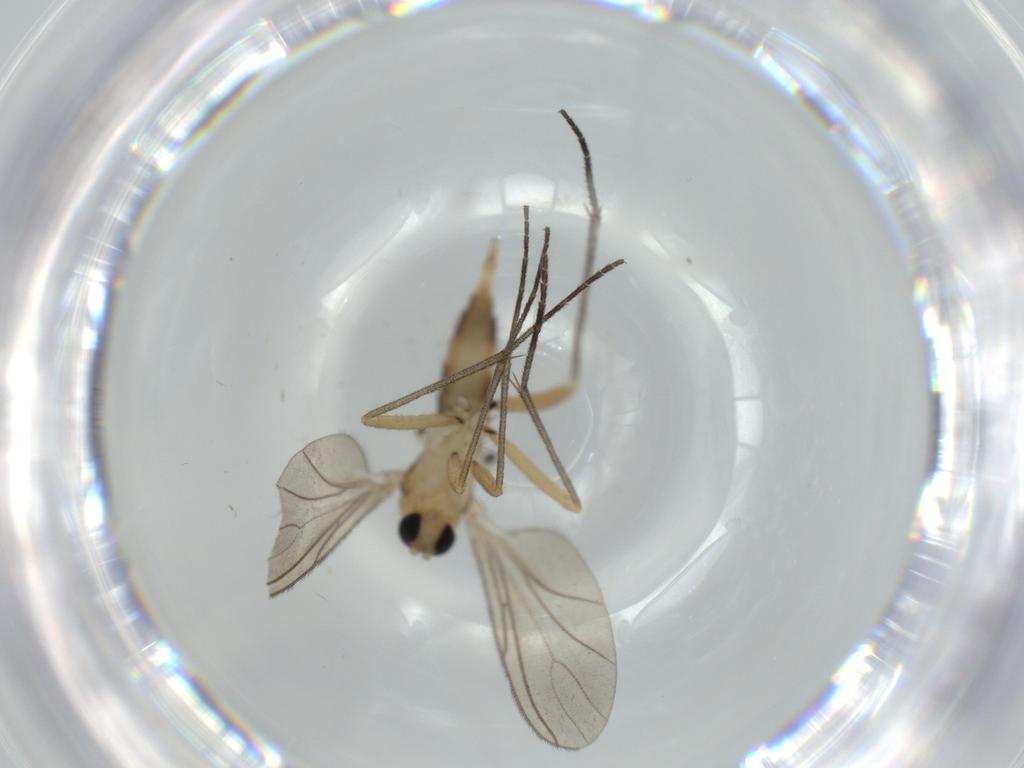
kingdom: Animalia
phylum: Arthropoda
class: Insecta
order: Diptera
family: Sciaridae
